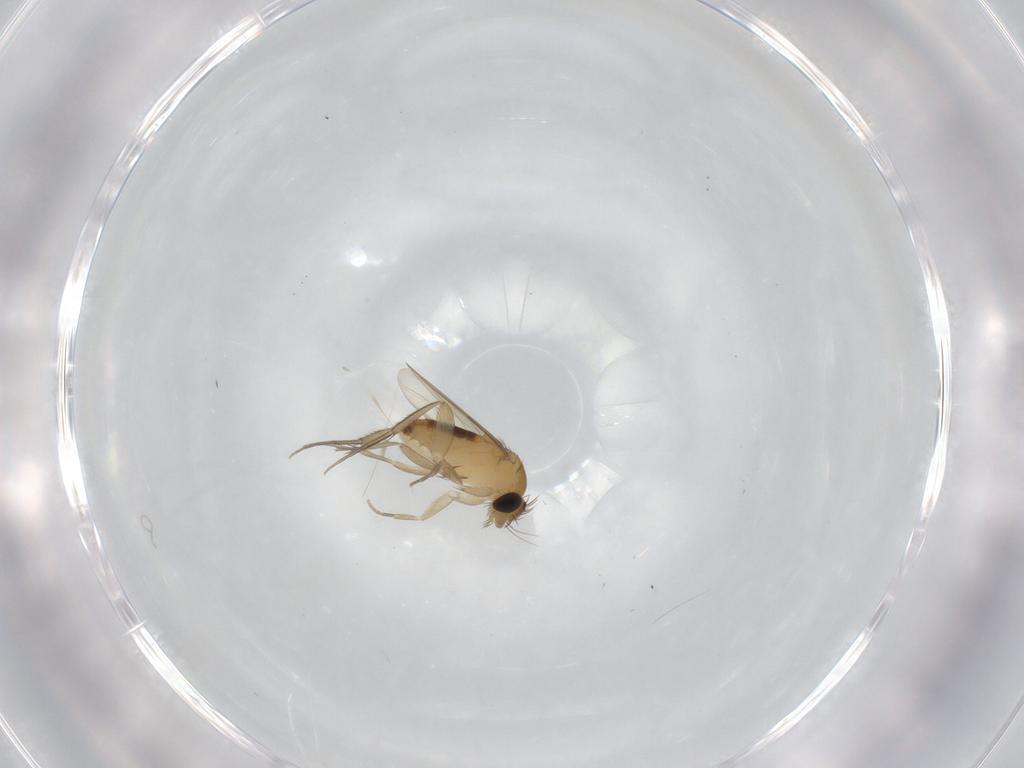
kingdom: Animalia
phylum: Arthropoda
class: Insecta
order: Diptera
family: Phoridae
